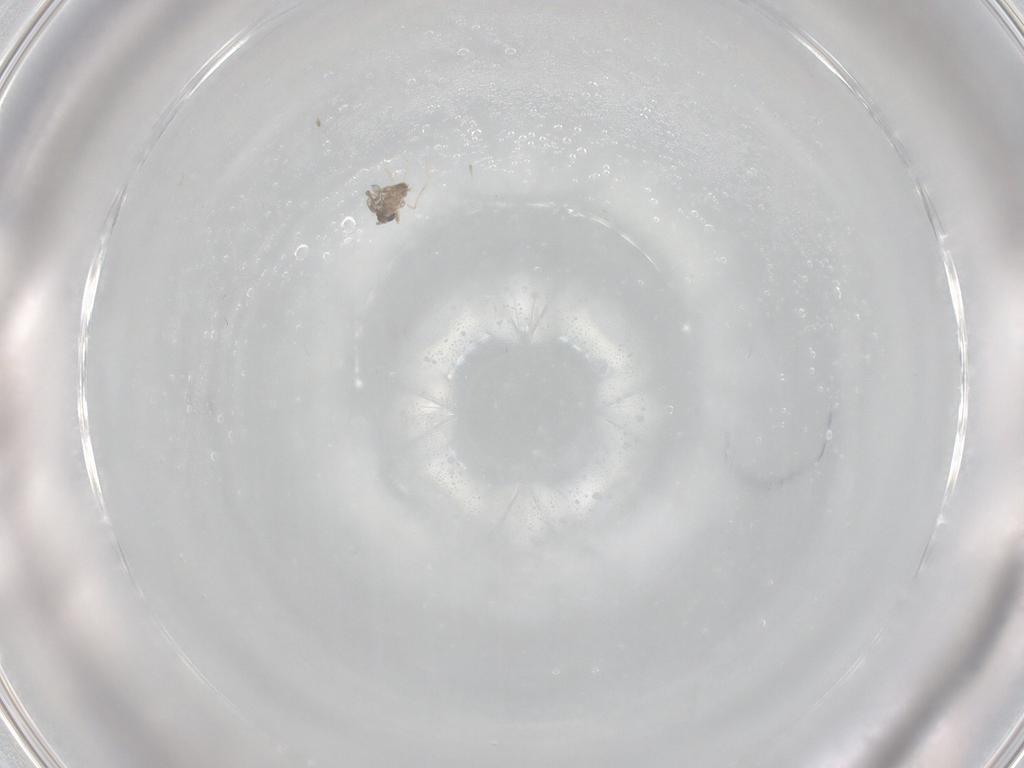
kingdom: Animalia
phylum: Arthropoda
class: Insecta
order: Diptera
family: Cecidomyiidae
